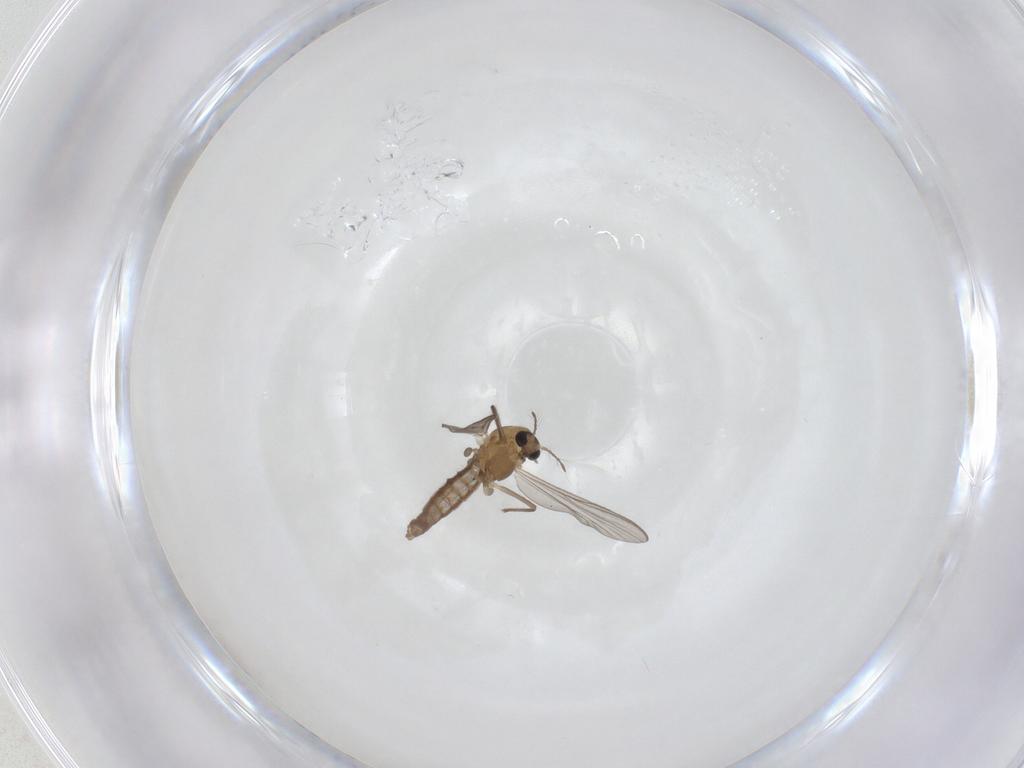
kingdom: Animalia
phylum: Arthropoda
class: Insecta
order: Diptera
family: Chironomidae
